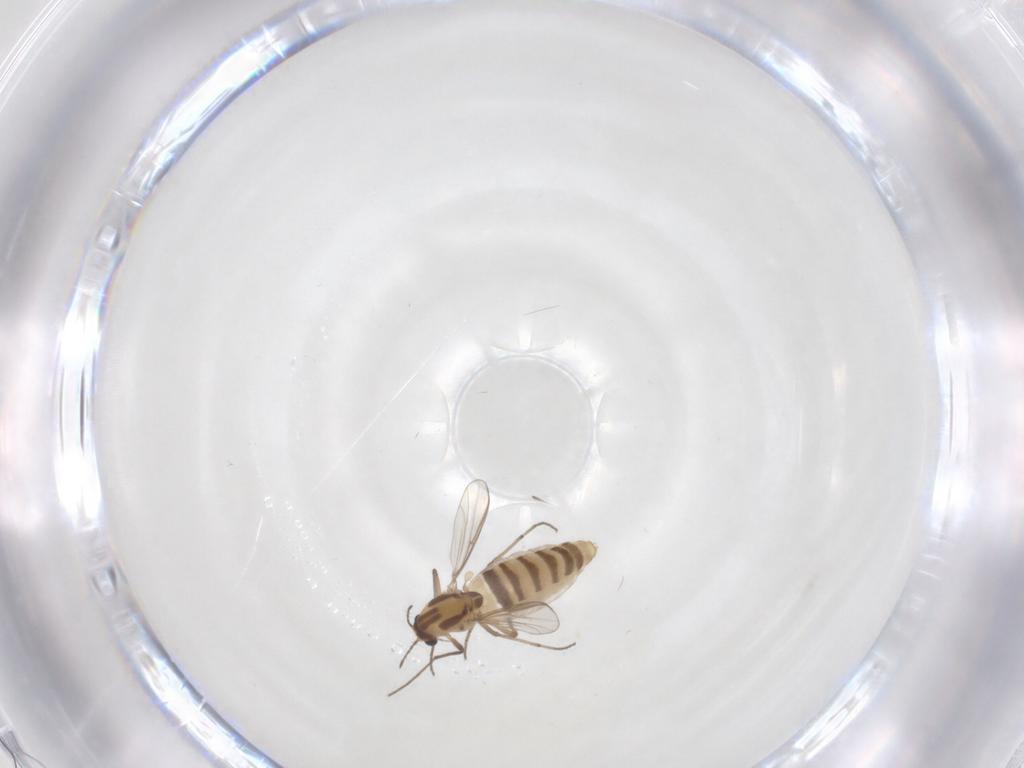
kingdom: Animalia
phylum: Arthropoda
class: Insecta
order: Diptera
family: Chironomidae
